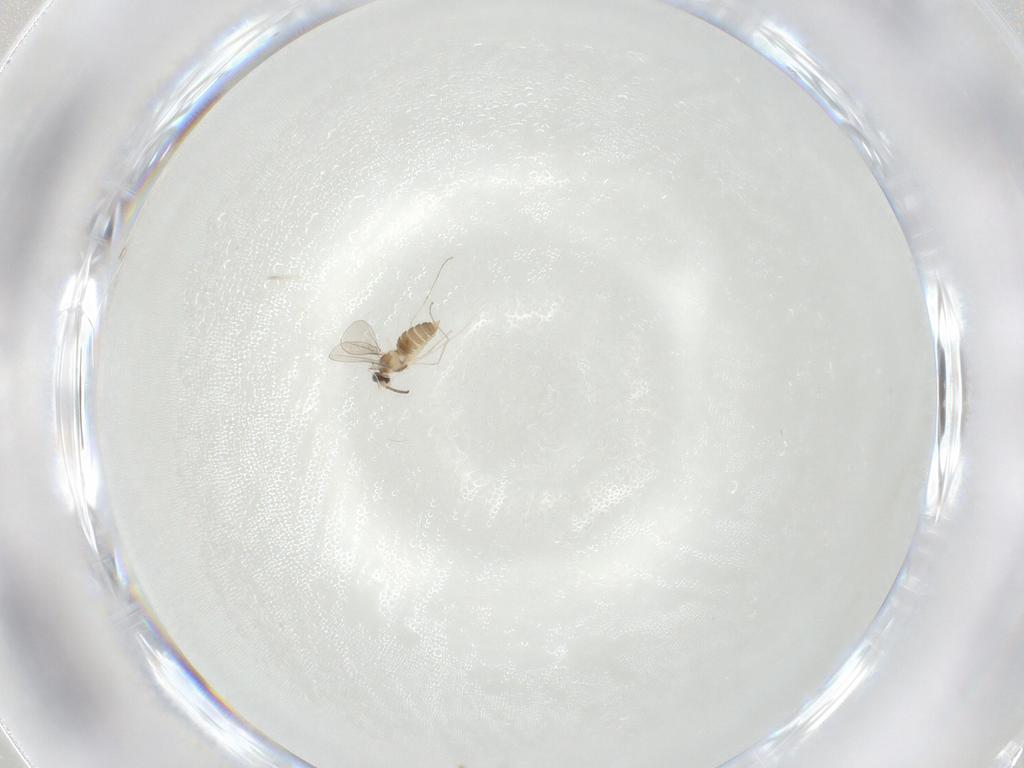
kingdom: Animalia
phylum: Arthropoda
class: Insecta
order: Diptera
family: Cecidomyiidae
